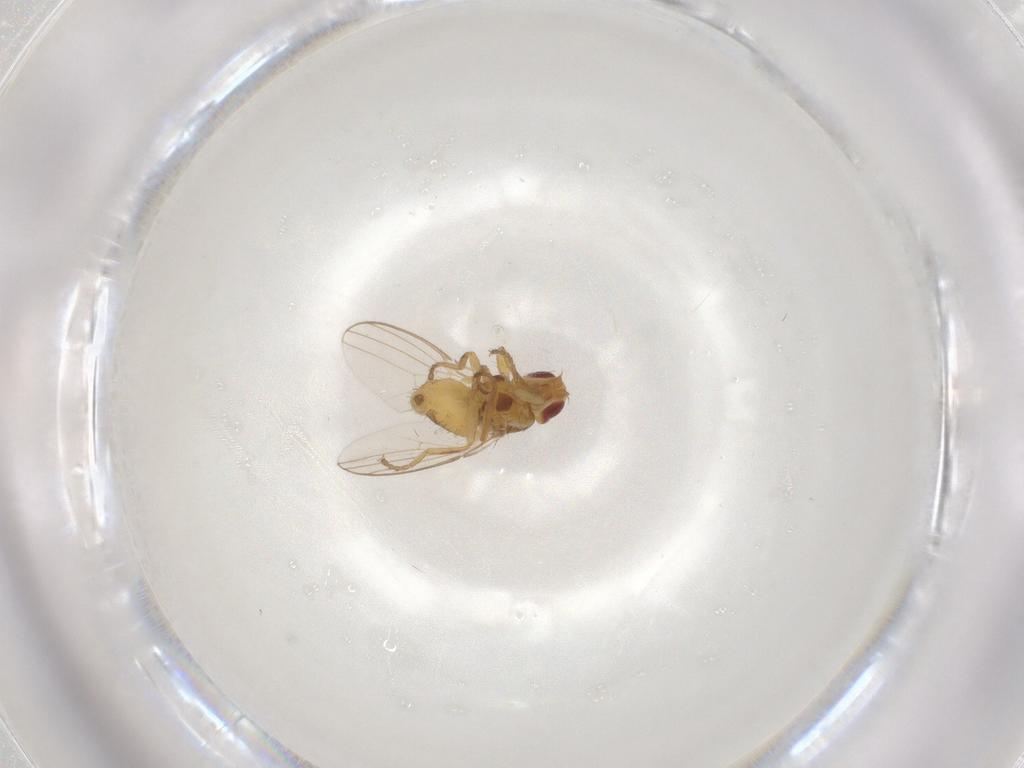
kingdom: Animalia
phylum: Arthropoda
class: Insecta
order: Diptera
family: Chloropidae
